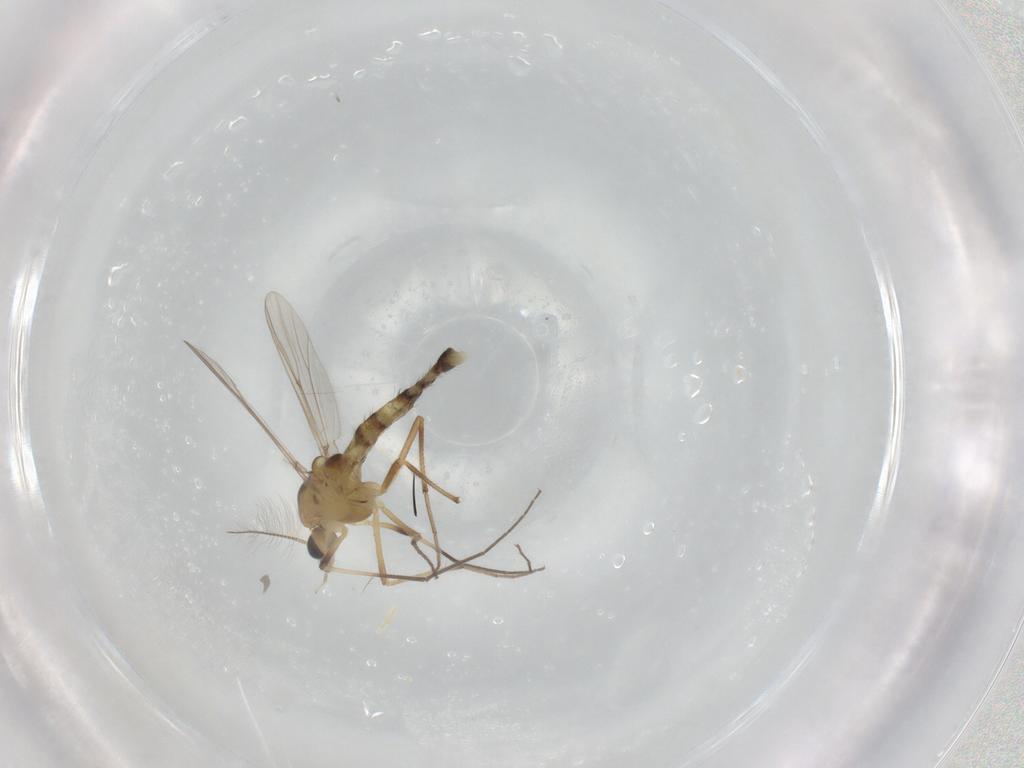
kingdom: Animalia
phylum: Arthropoda
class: Insecta
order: Diptera
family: Chironomidae
